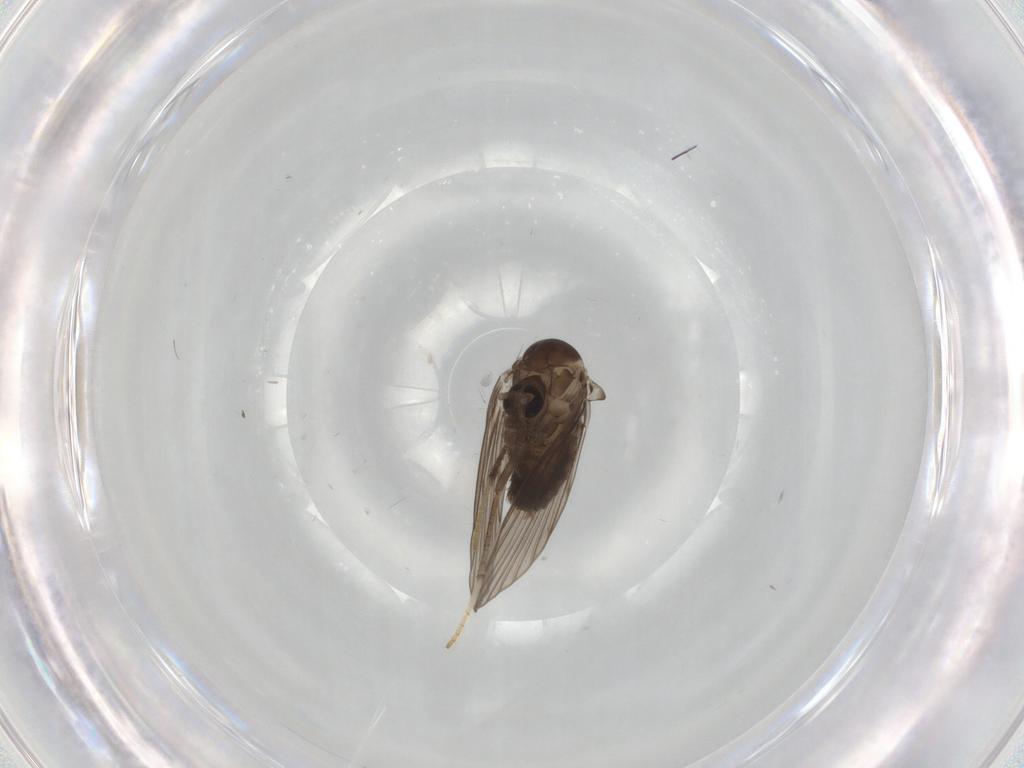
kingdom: Animalia
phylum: Arthropoda
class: Insecta
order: Diptera
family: Psychodidae
